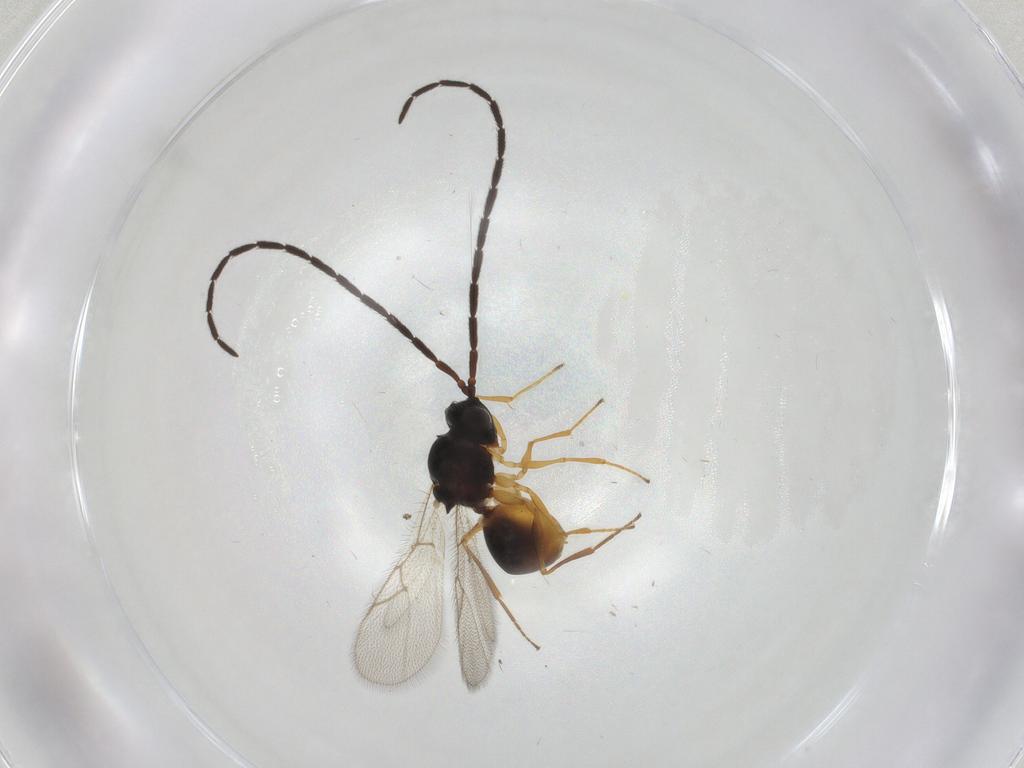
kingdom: Animalia
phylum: Arthropoda
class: Insecta
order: Hymenoptera
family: Figitidae
